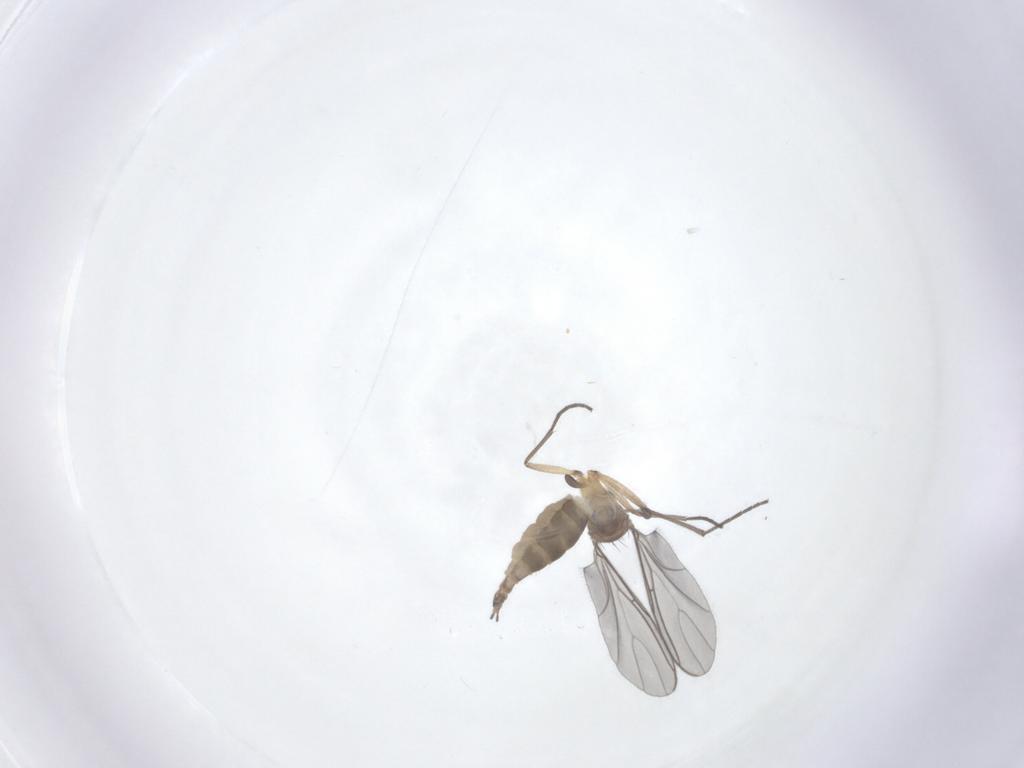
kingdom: Animalia
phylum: Arthropoda
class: Insecta
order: Diptera
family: Sciaridae
